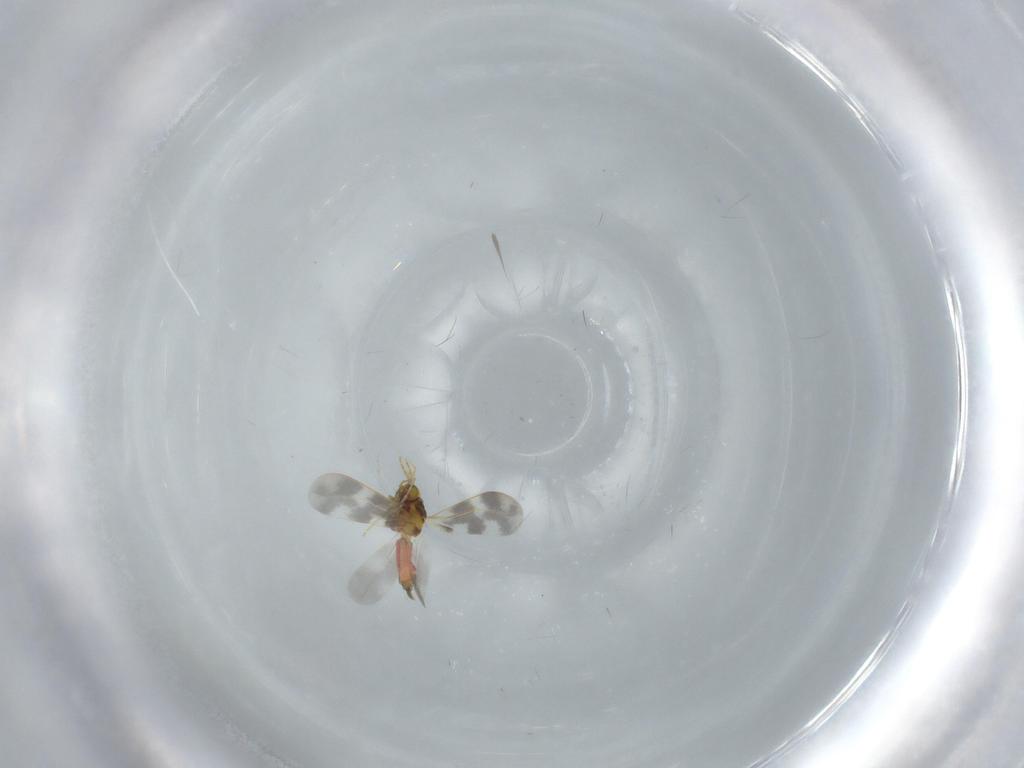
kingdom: Animalia
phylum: Arthropoda
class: Insecta
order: Hemiptera
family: Aleyrodidae
